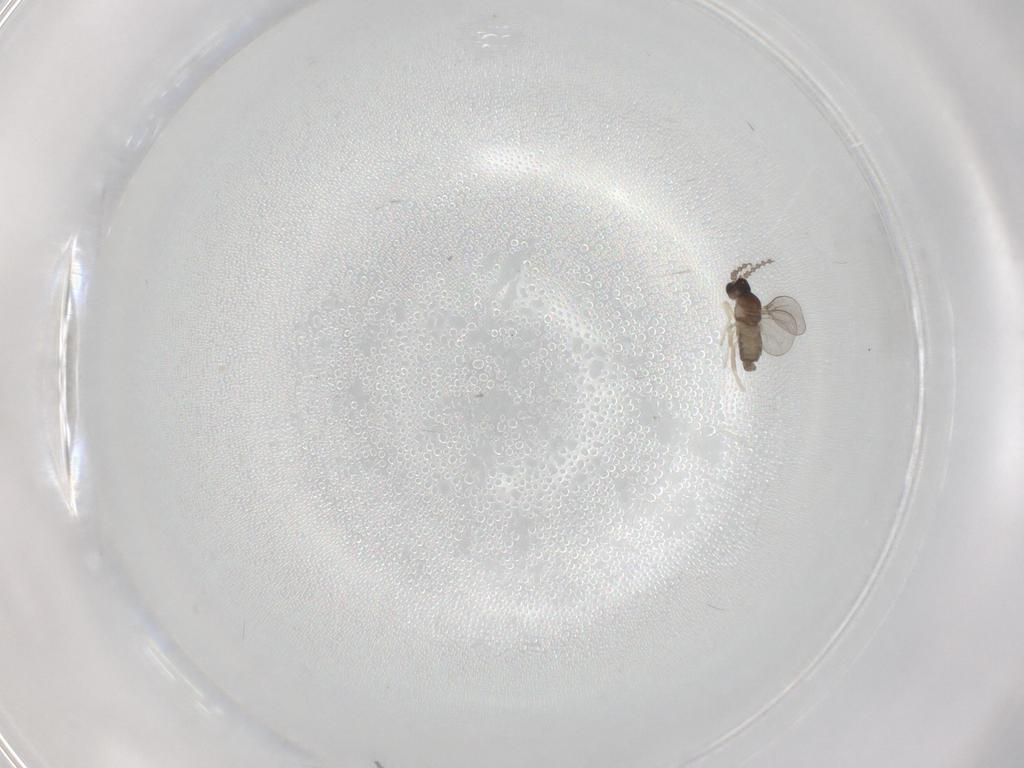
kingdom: Animalia
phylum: Arthropoda
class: Insecta
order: Diptera
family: Cecidomyiidae
